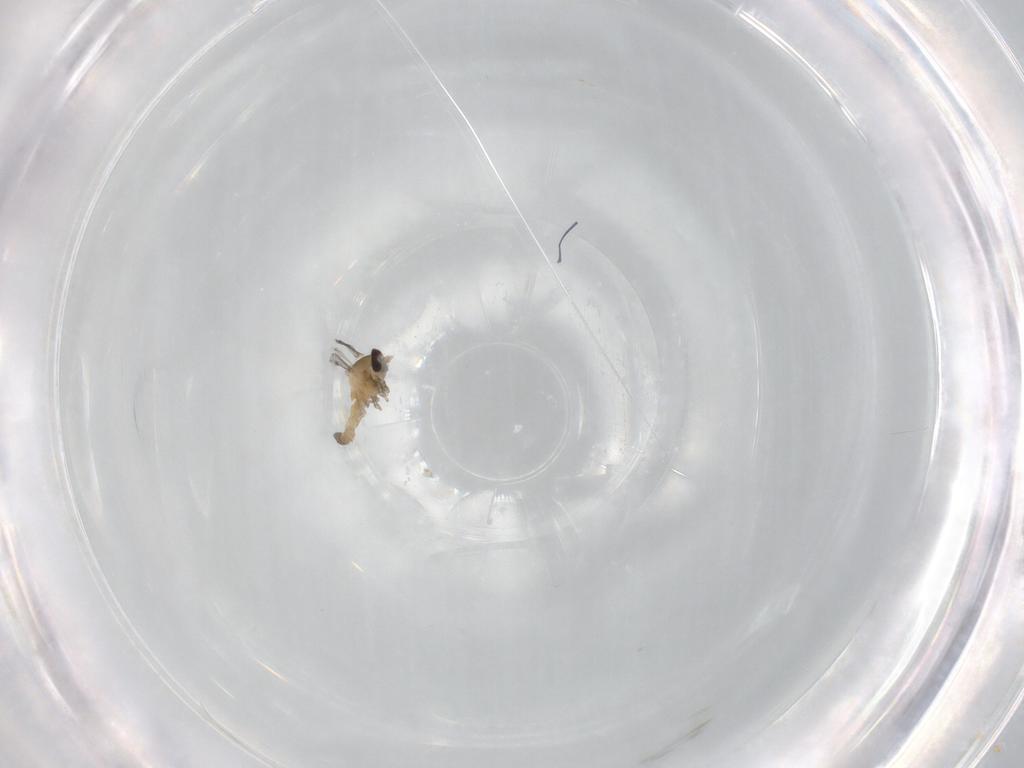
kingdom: Animalia
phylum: Arthropoda
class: Insecta
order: Diptera
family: Cecidomyiidae
